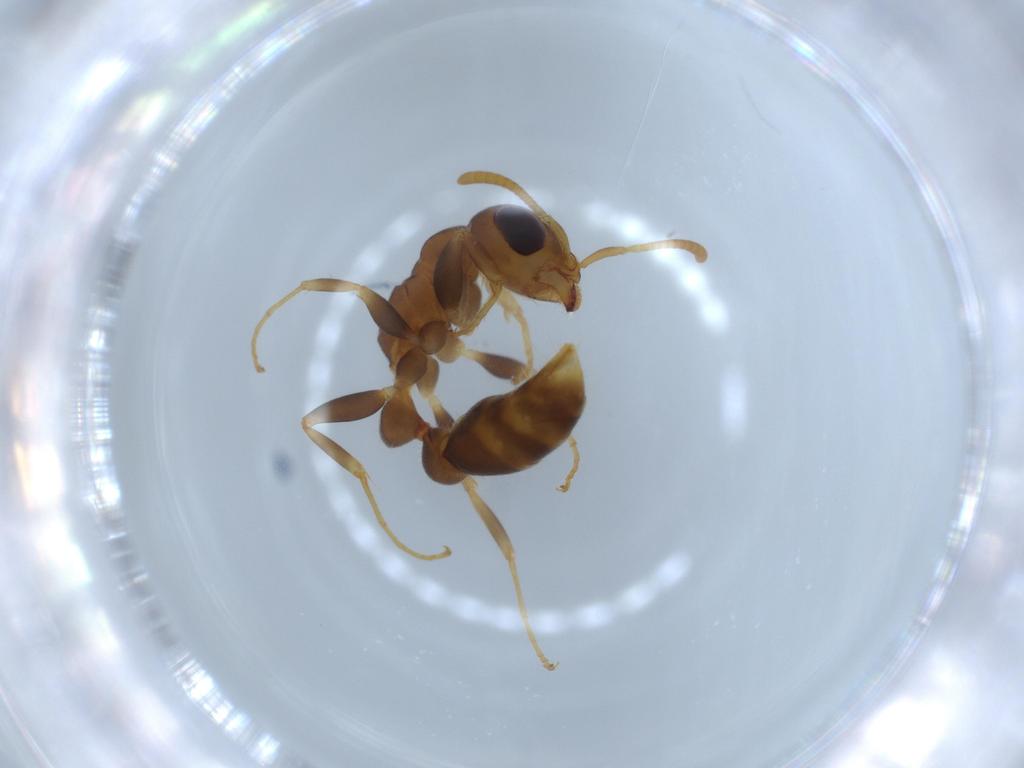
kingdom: Animalia
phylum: Arthropoda
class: Insecta
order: Hymenoptera
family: Formicidae
